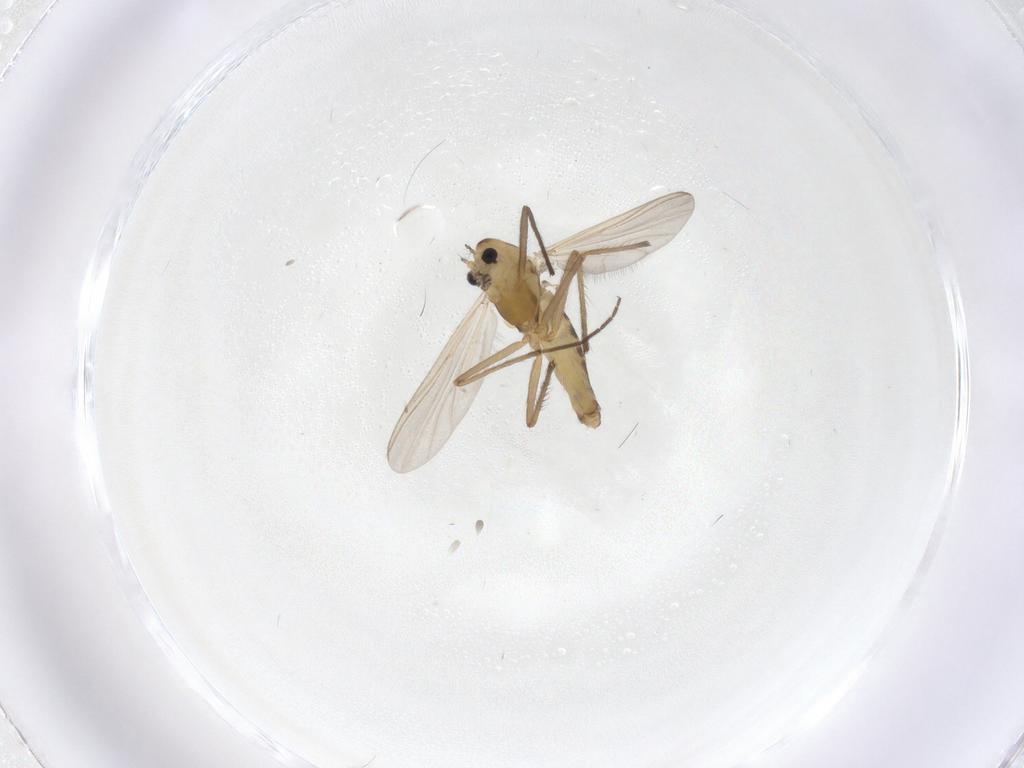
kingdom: Animalia
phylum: Arthropoda
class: Insecta
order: Diptera
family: Chironomidae
